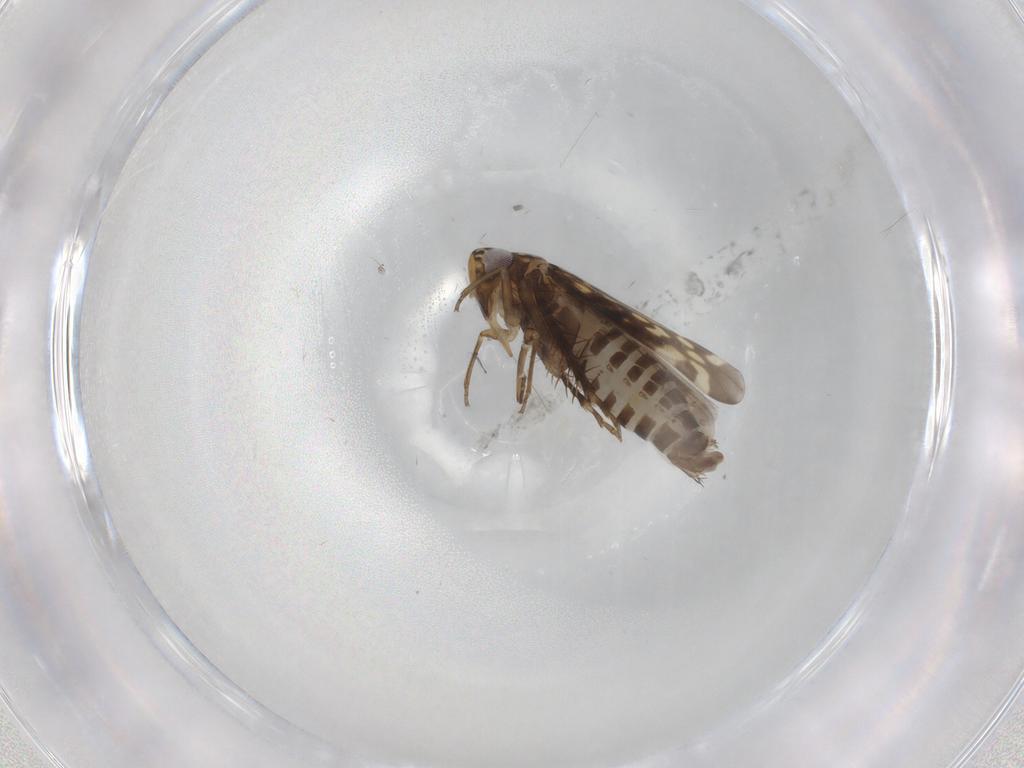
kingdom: Animalia
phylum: Arthropoda
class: Insecta
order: Hemiptera
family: Cicadellidae
